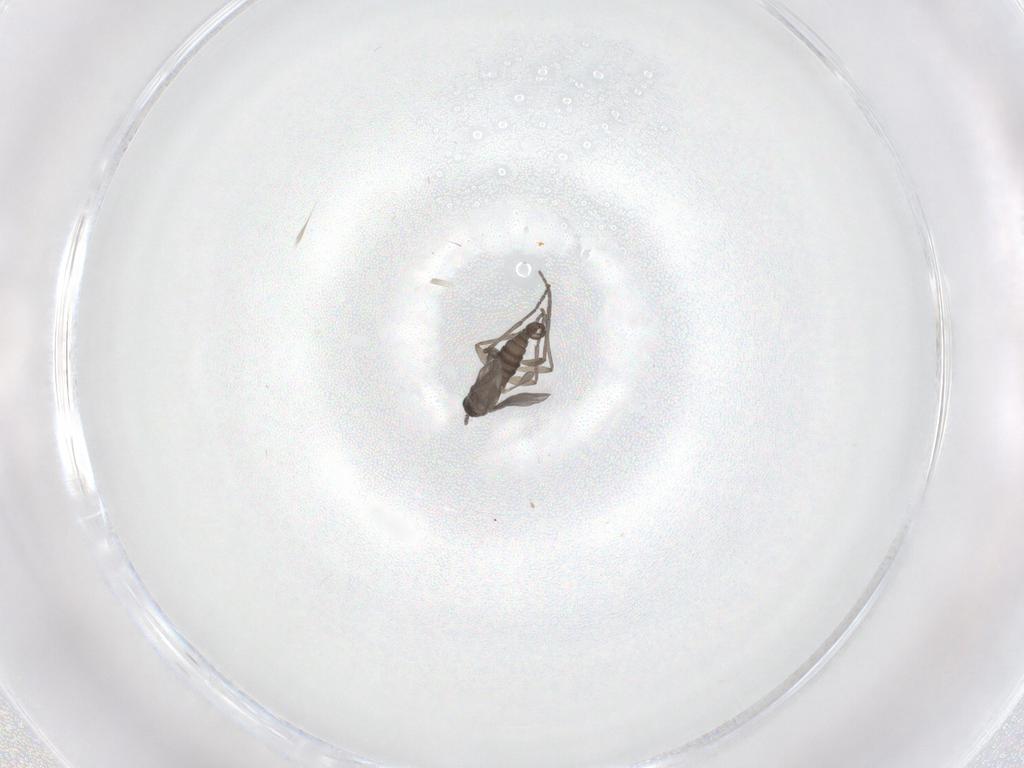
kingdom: Animalia
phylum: Arthropoda
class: Insecta
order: Diptera
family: Sciaridae
